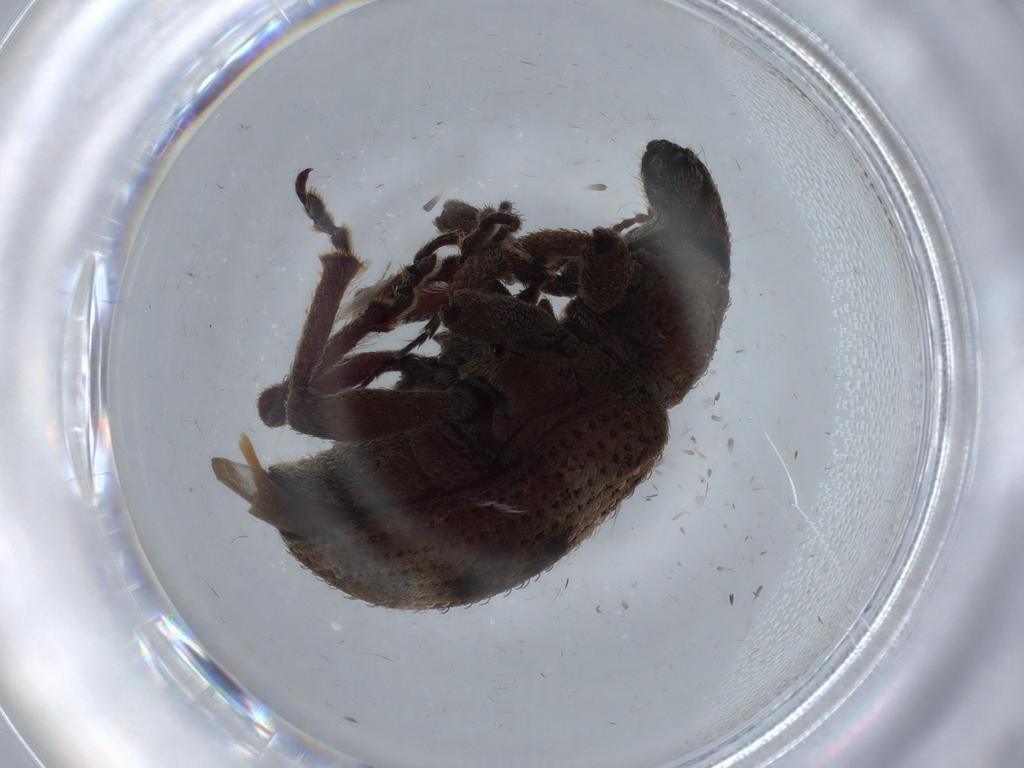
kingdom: Animalia
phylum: Arthropoda
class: Insecta
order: Coleoptera
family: Curculionidae
